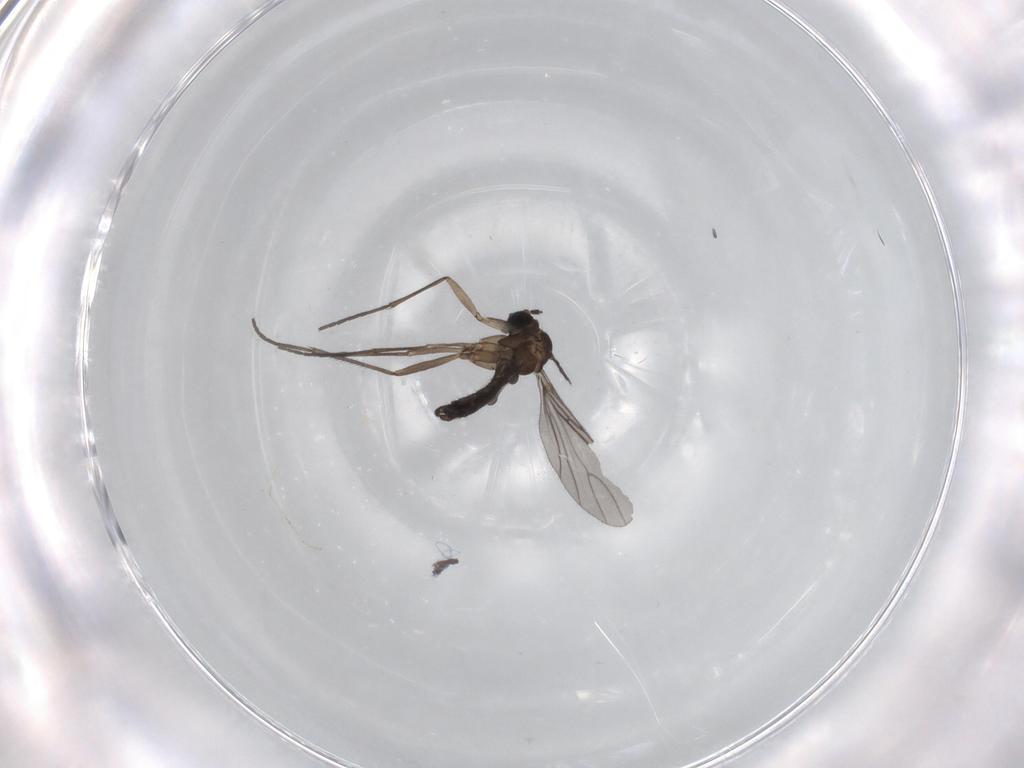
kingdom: Animalia
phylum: Arthropoda
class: Insecta
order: Diptera
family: Sciaridae
